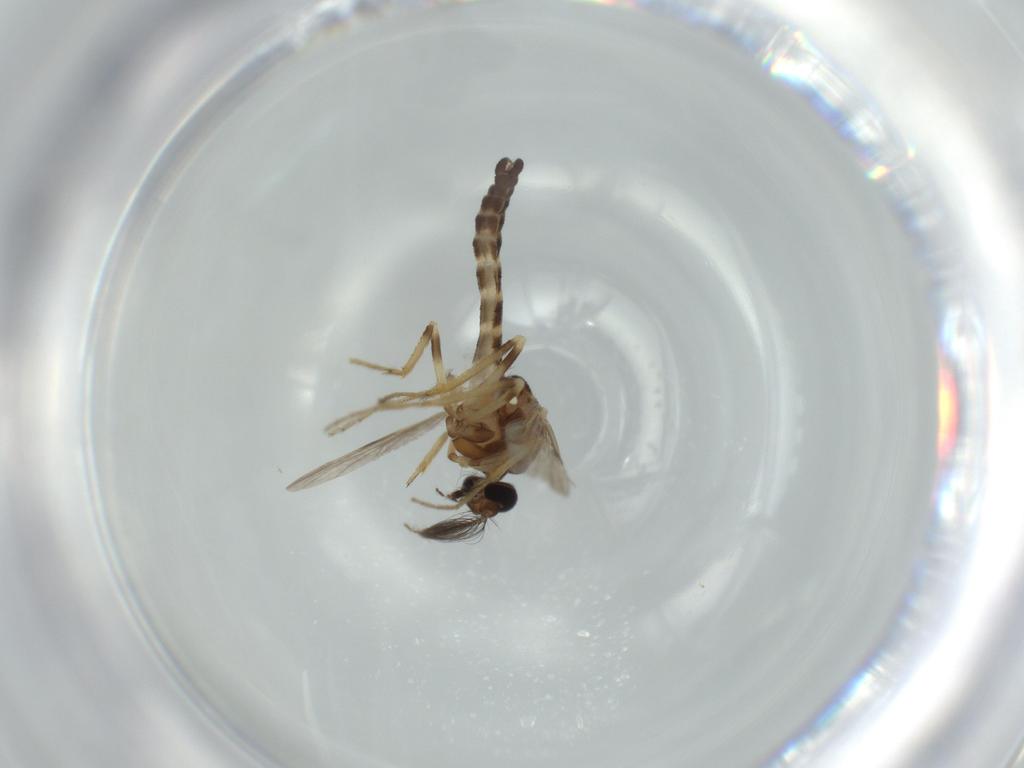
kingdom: Animalia
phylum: Arthropoda
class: Insecta
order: Diptera
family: Ceratopogonidae
